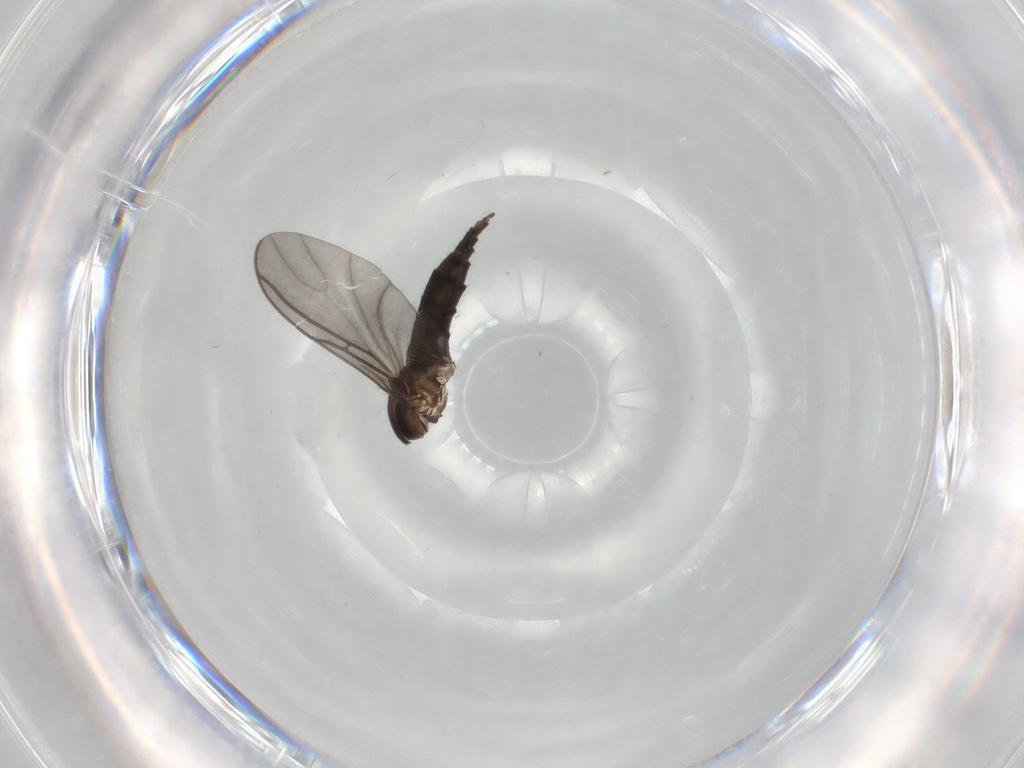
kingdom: Animalia
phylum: Arthropoda
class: Insecta
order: Diptera
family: Sciaridae
